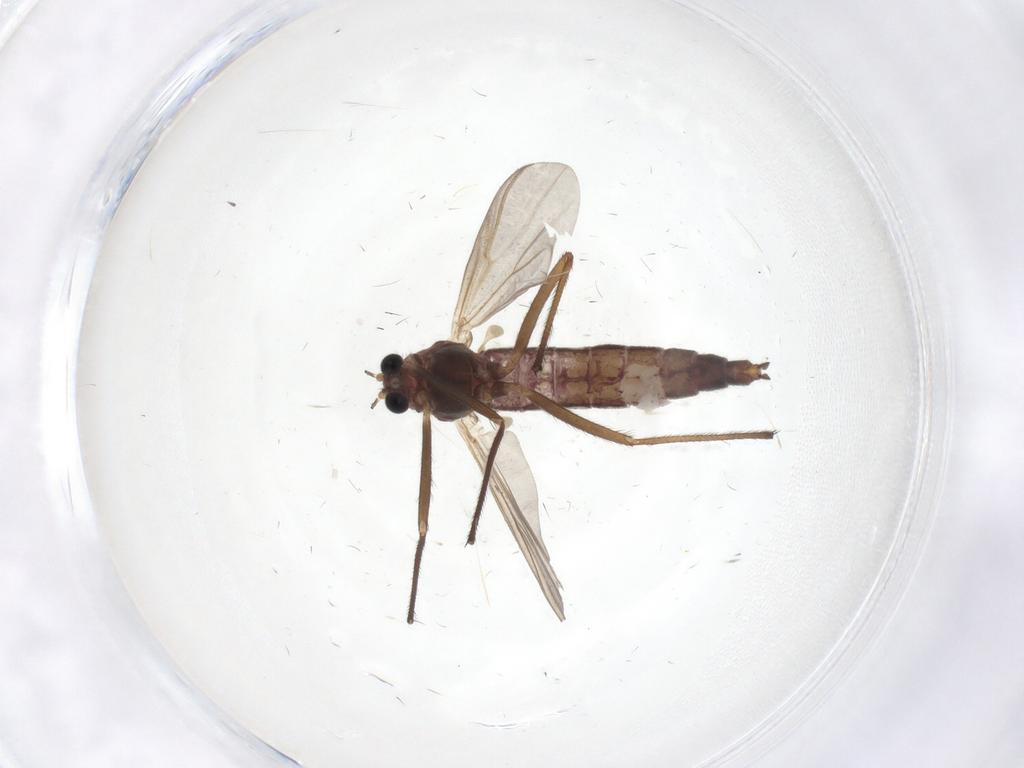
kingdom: Animalia
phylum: Arthropoda
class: Insecta
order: Diptera
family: Chironomidae
